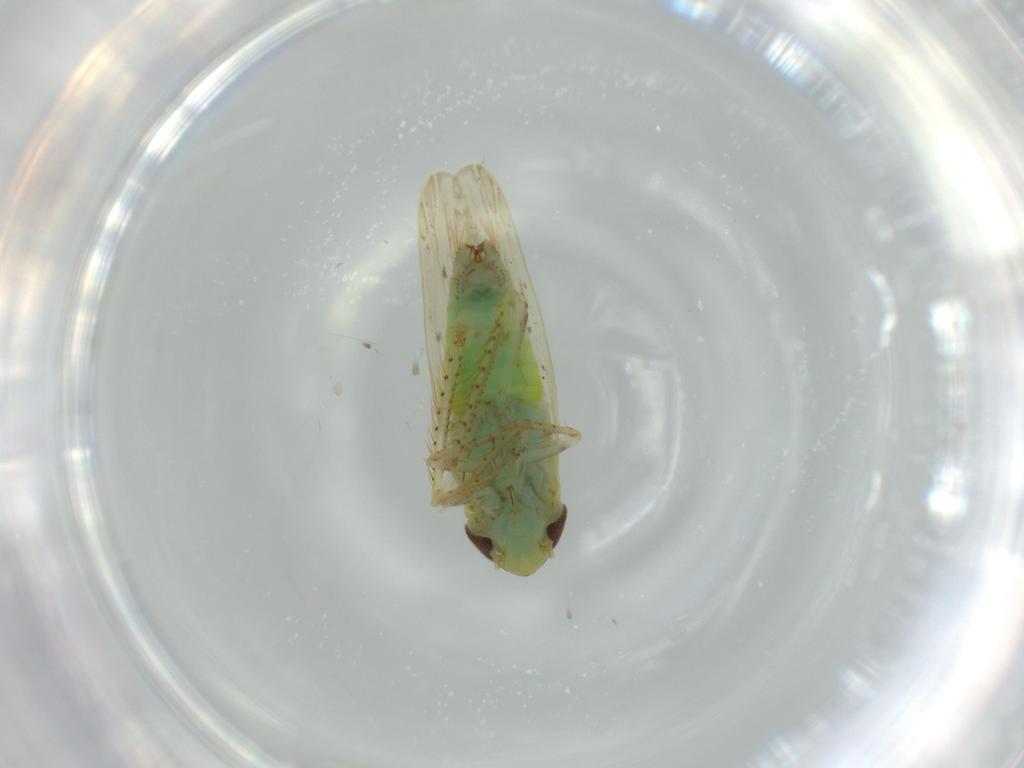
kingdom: Animalia
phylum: Arthropoda
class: Insecta
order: Hemiptera
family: Cicadellidae
